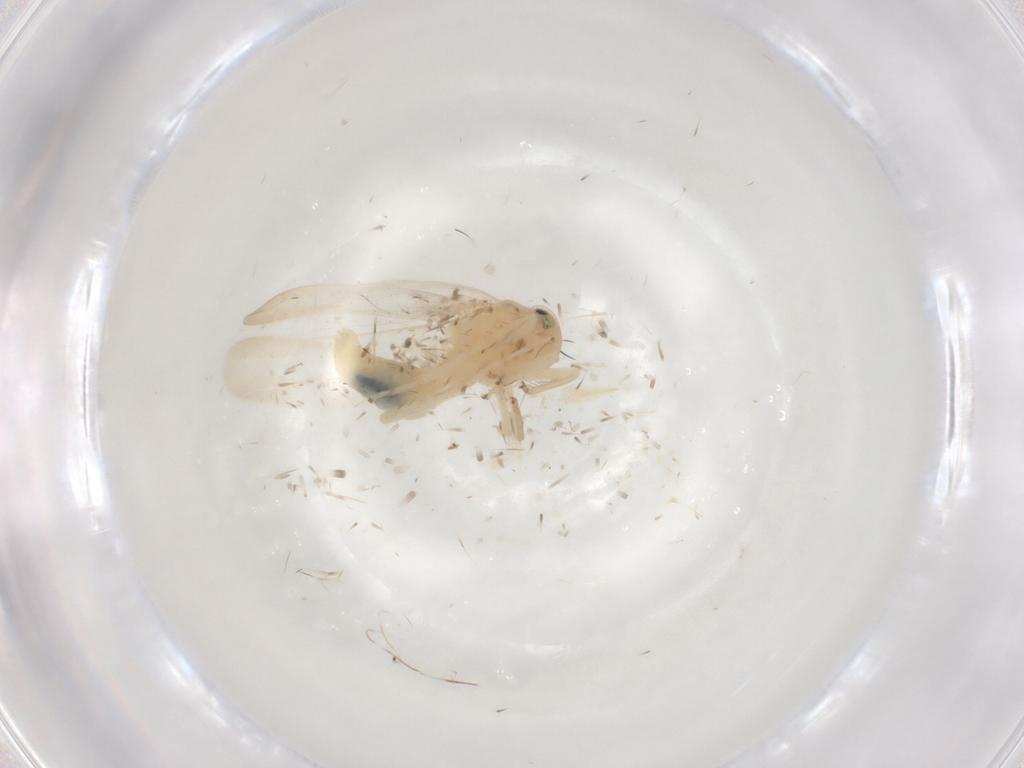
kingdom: Animalia
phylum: Arthropoda
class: Insecta
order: Hemiptera
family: Cicadellidae
